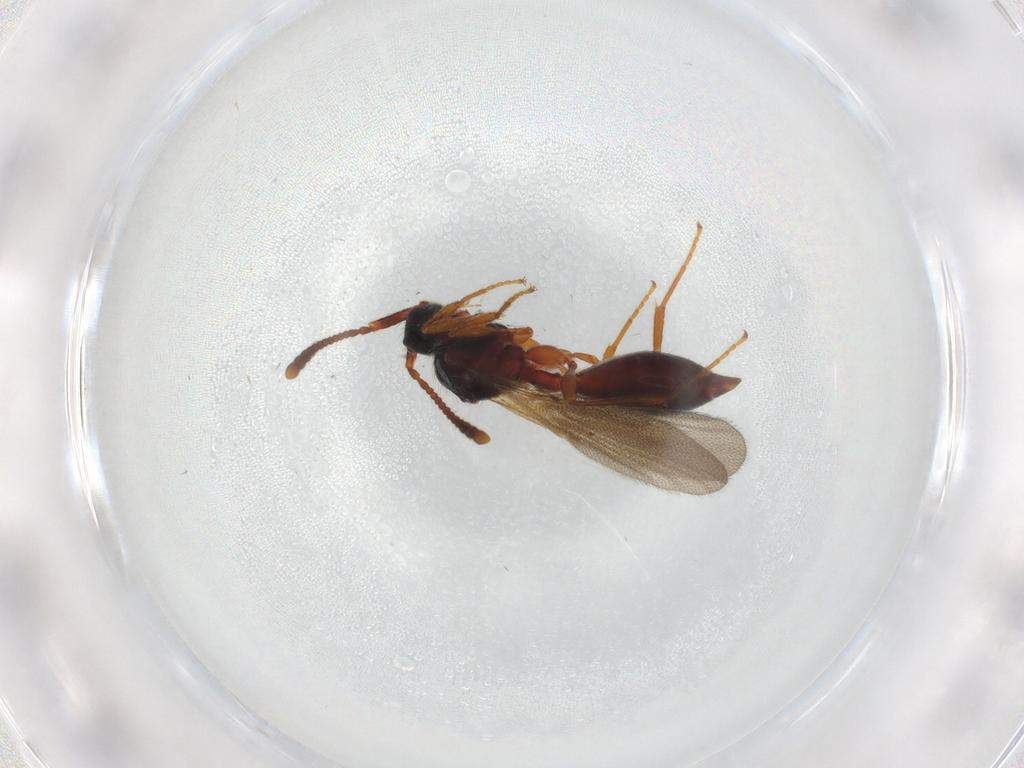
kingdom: Animalia
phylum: Arthropoda
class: Insecta
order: Hymenoptera
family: Diapriidae
